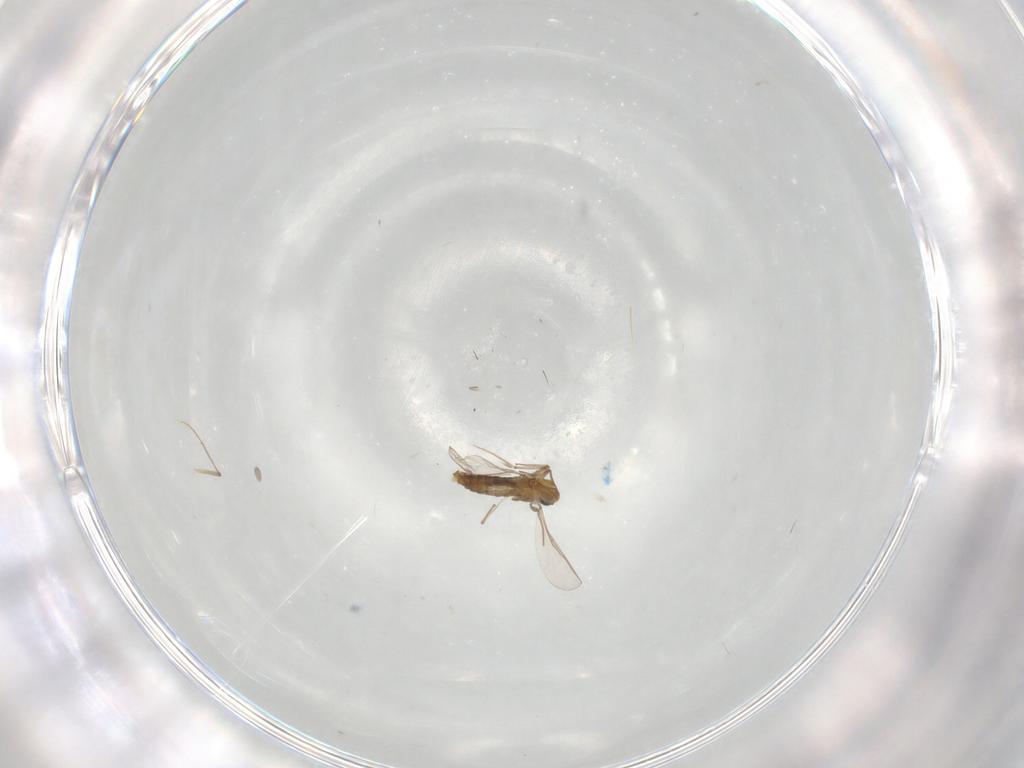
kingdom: Animalia
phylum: Arthropoda
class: Insecta
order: Diptera
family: Chironomidae
